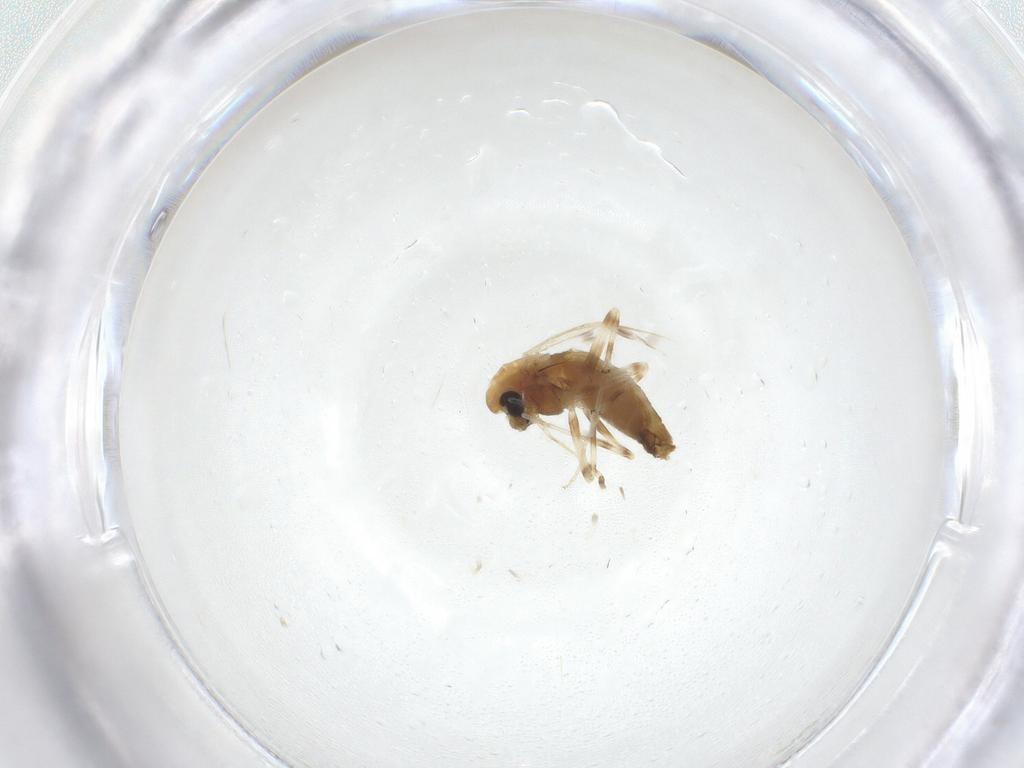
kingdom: Animalia
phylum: Arthropoda
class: Insecta
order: Diptera
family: Chironomidae
